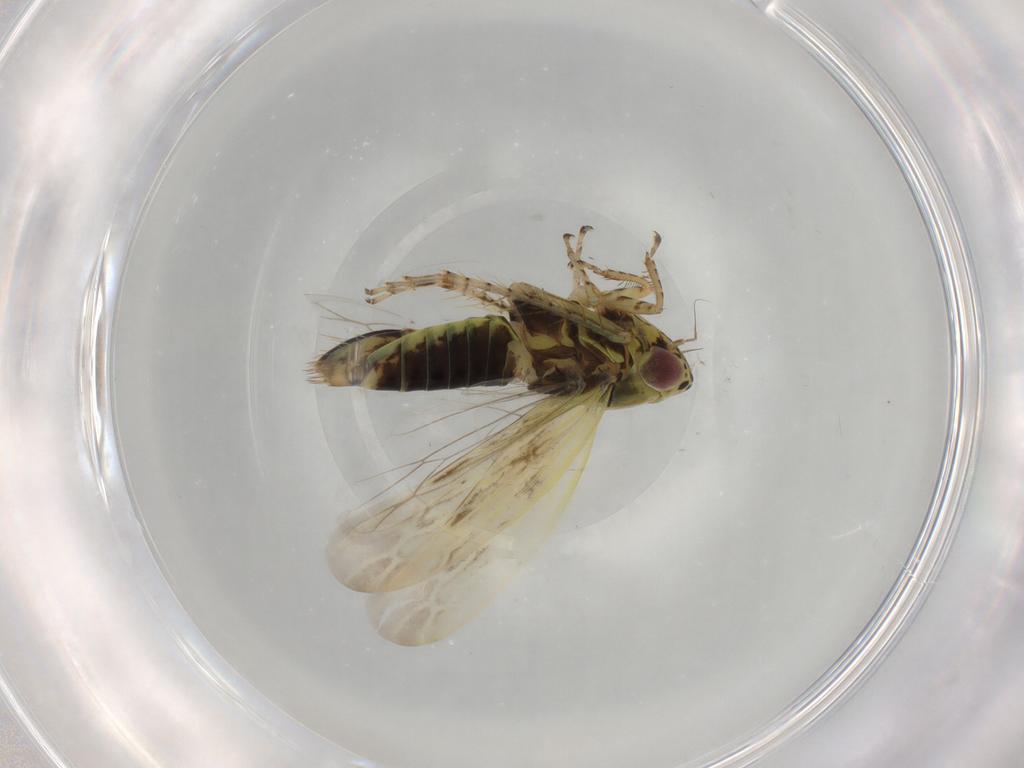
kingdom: Animalia
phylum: Arthropoda
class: Insecta
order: Hemiptera
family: Cicadellidae
